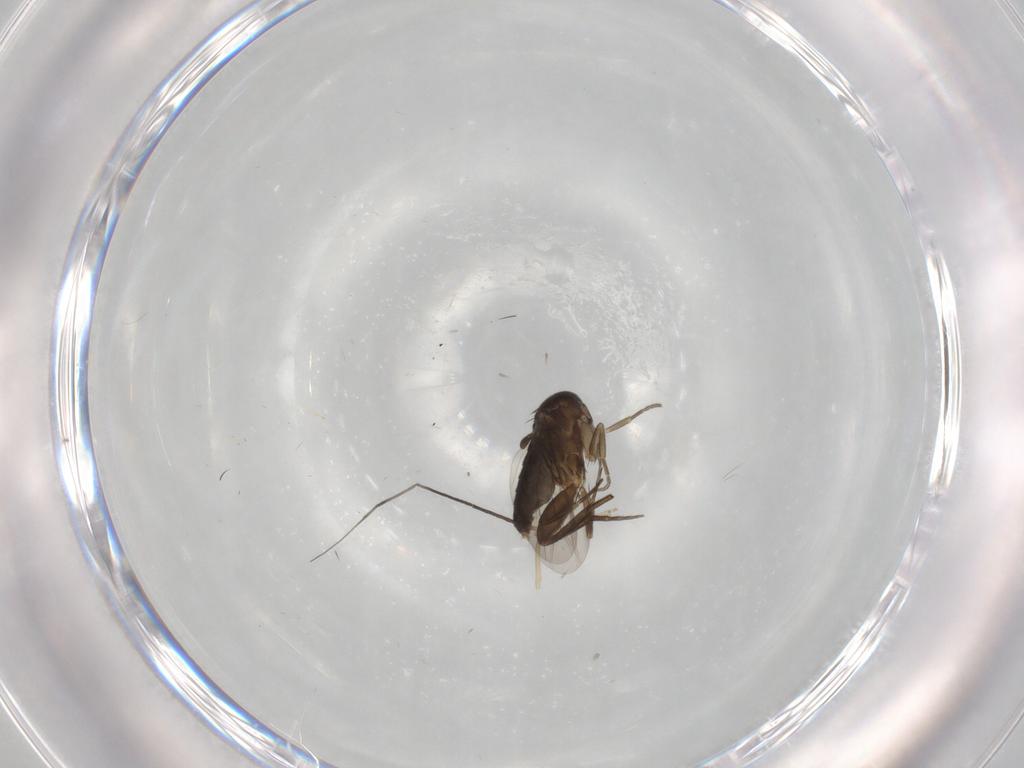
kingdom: Animalia
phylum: Arthropoda
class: Insecta
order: Diptera
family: Cecidomyiidae
